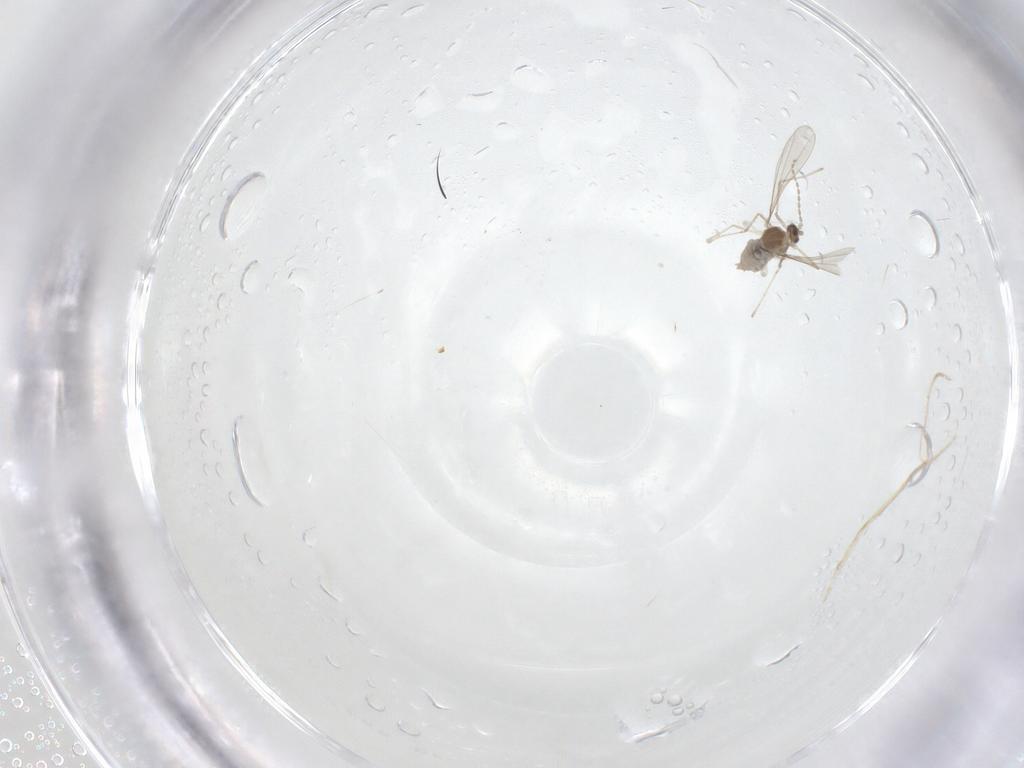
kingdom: Animalia
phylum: Arthropoda
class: Insecta
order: Diptera
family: Cecidomyiidae
